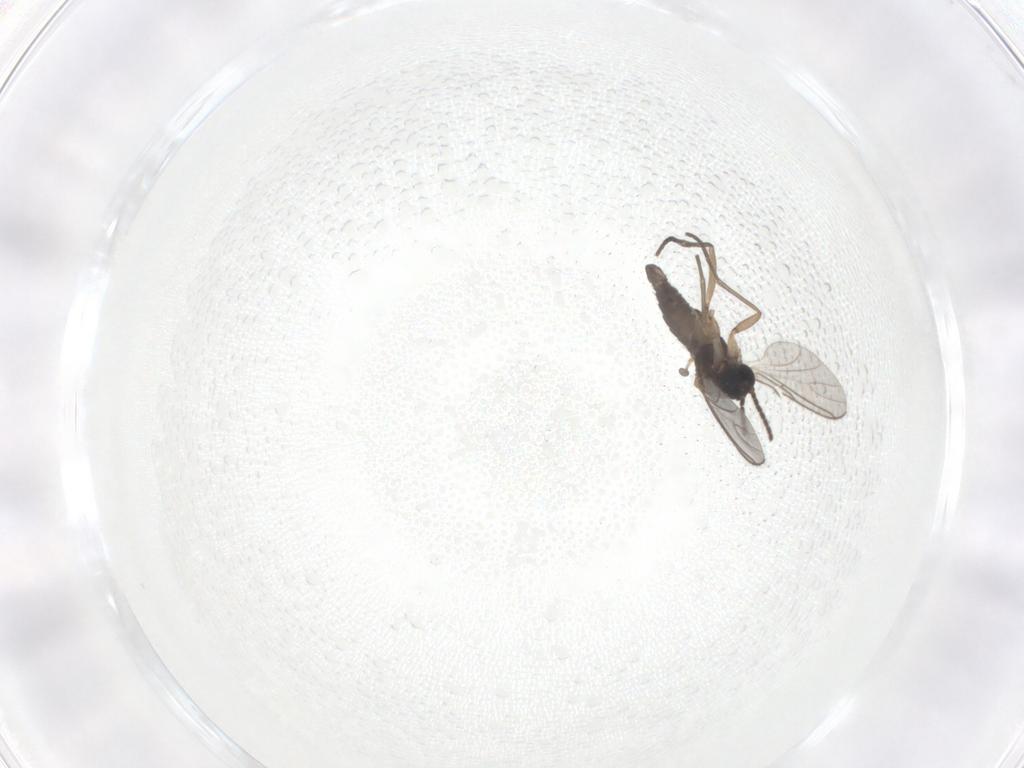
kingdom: Animalia
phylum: Arthropoda
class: Insecta
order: Diptera
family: Sciaridae
